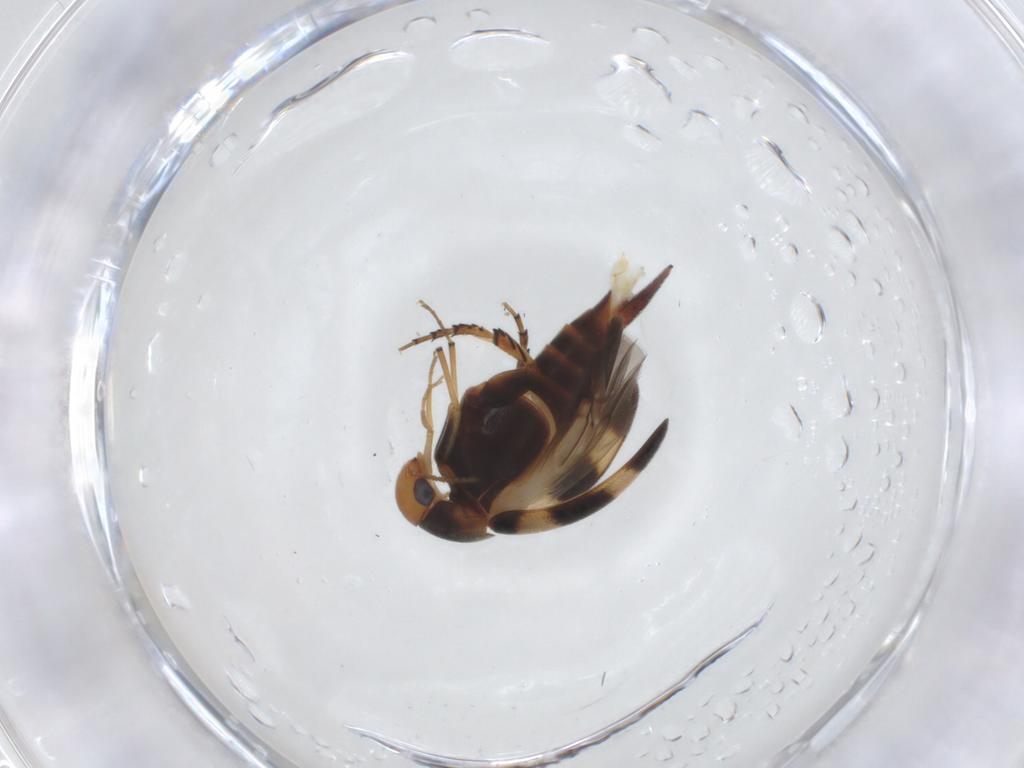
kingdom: Animalia
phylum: Arthropoda
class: Insecta
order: Coleoptera
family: Mordellidae
